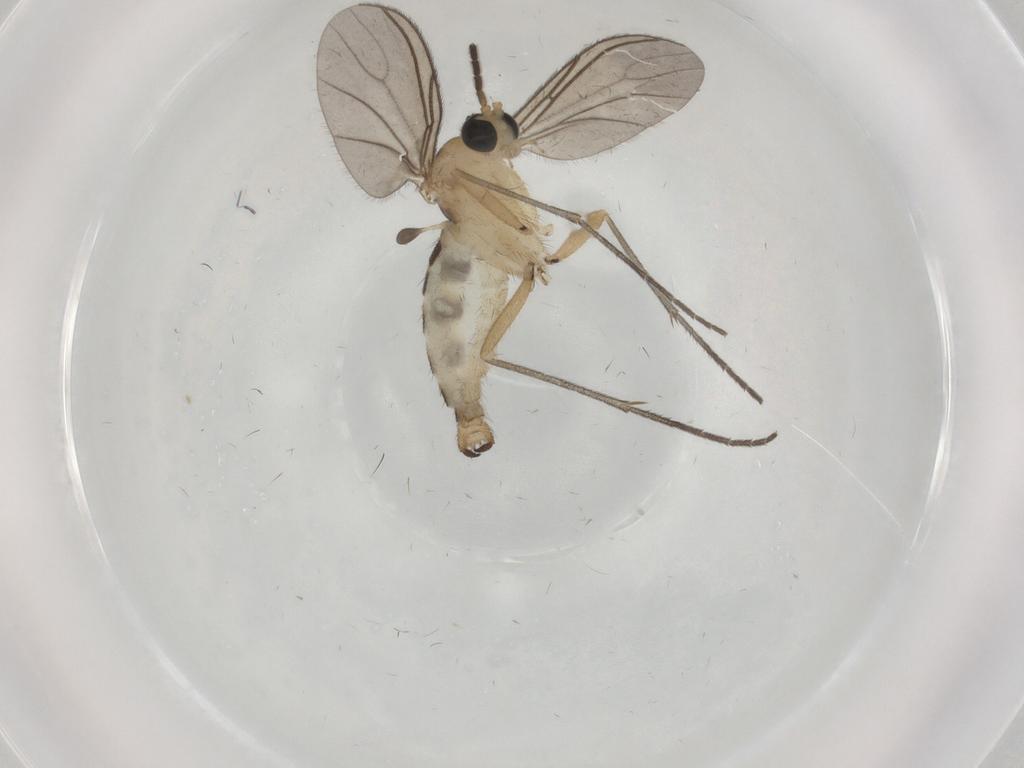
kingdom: Animalia
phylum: Arthropoda
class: Insecta
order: Diptera
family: Sciaridae
